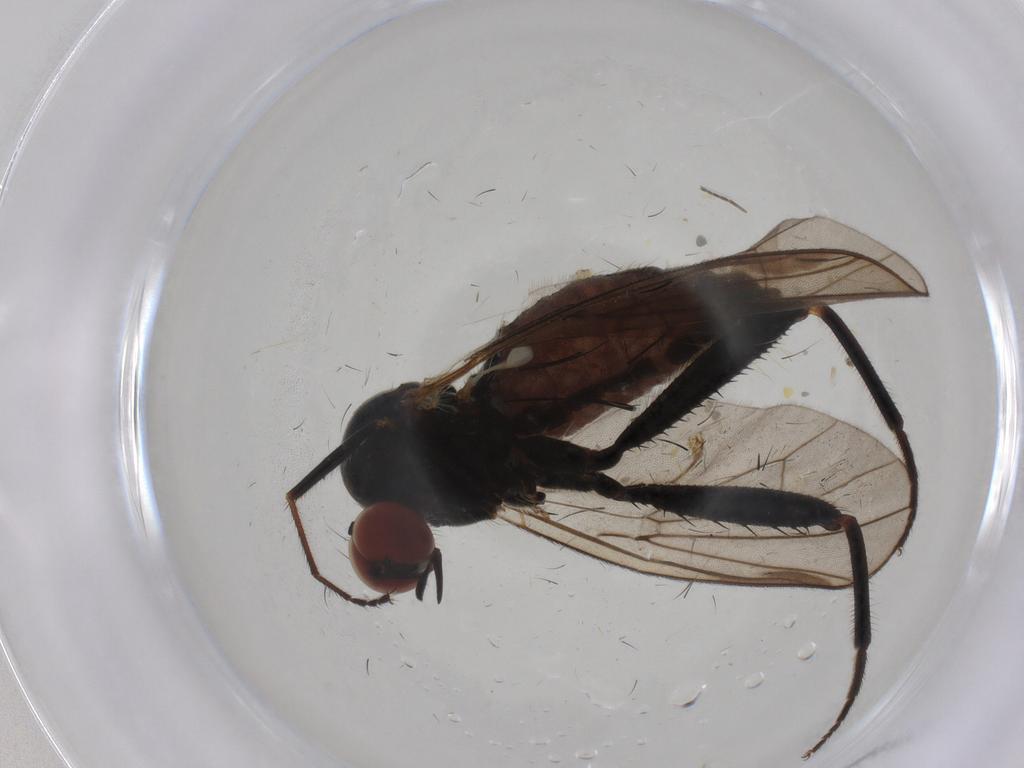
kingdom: Animalia
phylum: Arthropoda
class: Insecta
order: Diptera
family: Hybotidae
